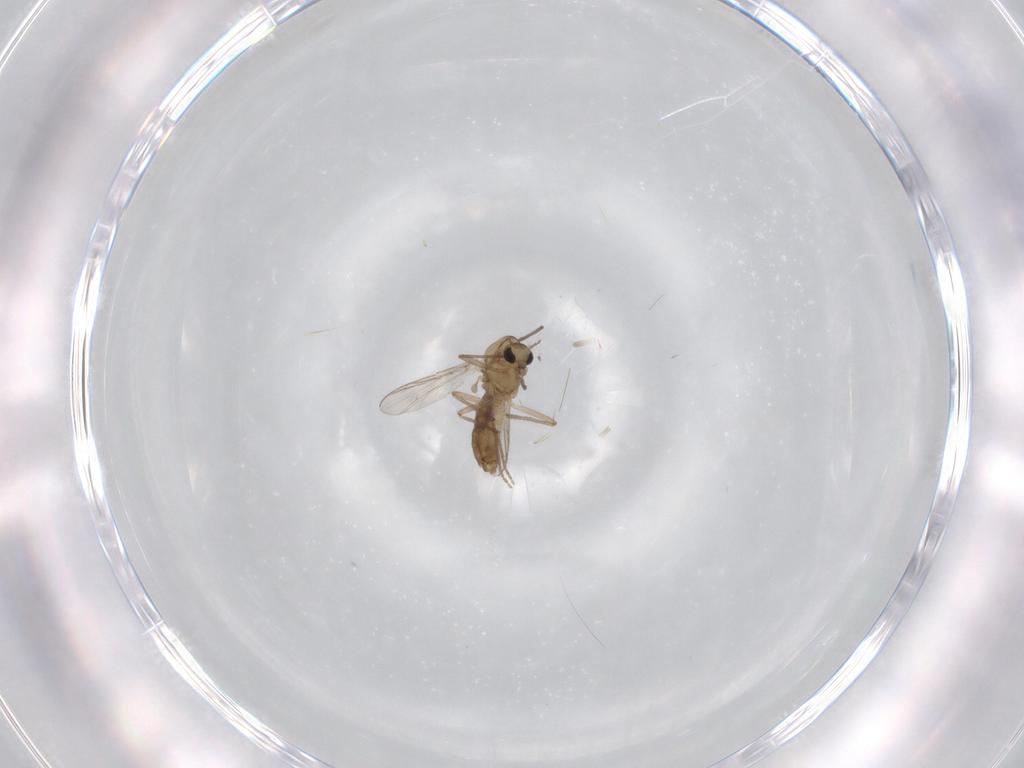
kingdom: Animalia
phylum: Arthropoda
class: Insecta
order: Diptera
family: Chironomidae
